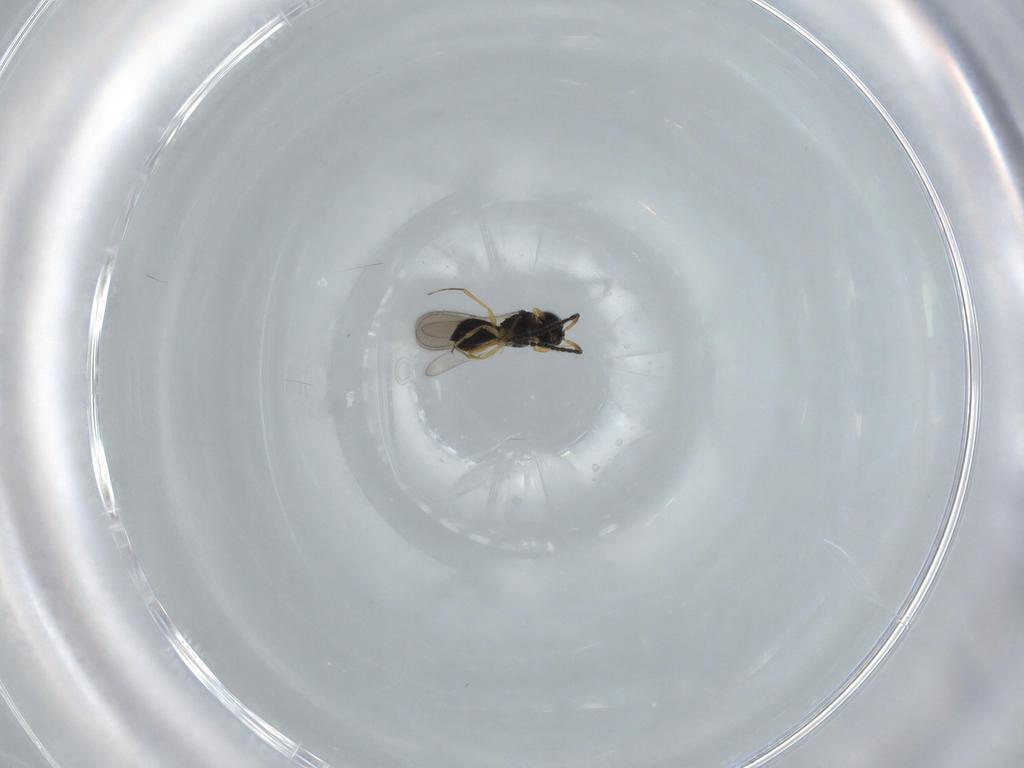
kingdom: Animalia
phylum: Arthropoda
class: Insecta
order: Hymenoptera
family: Scelionidae
